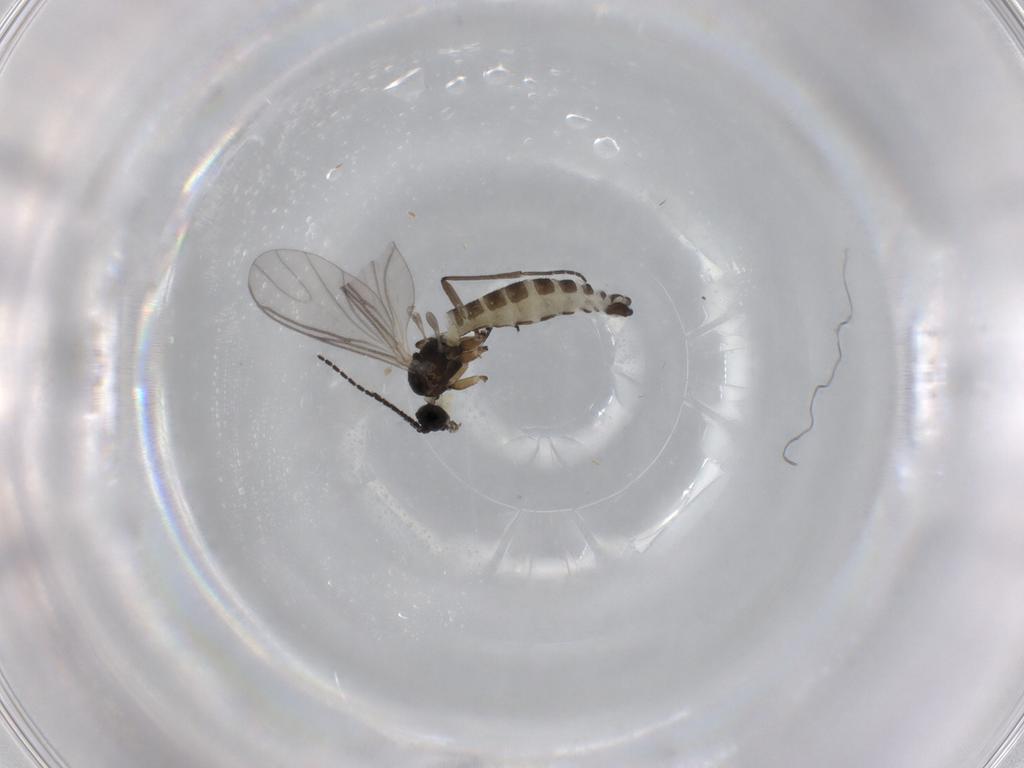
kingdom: Animalia
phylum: Arthropoda
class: Insecta
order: Diptera
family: Sciaridae
